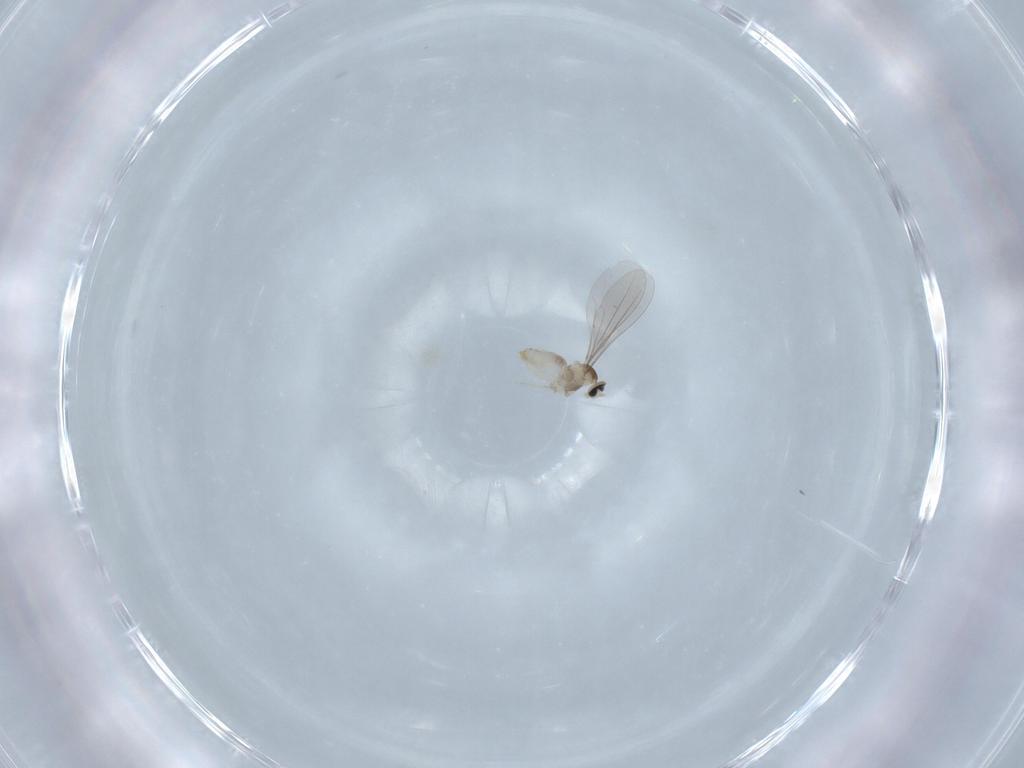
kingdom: Animalia
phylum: Arthropoda
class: Insecta
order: Diptera
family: Cecidomyiidae
